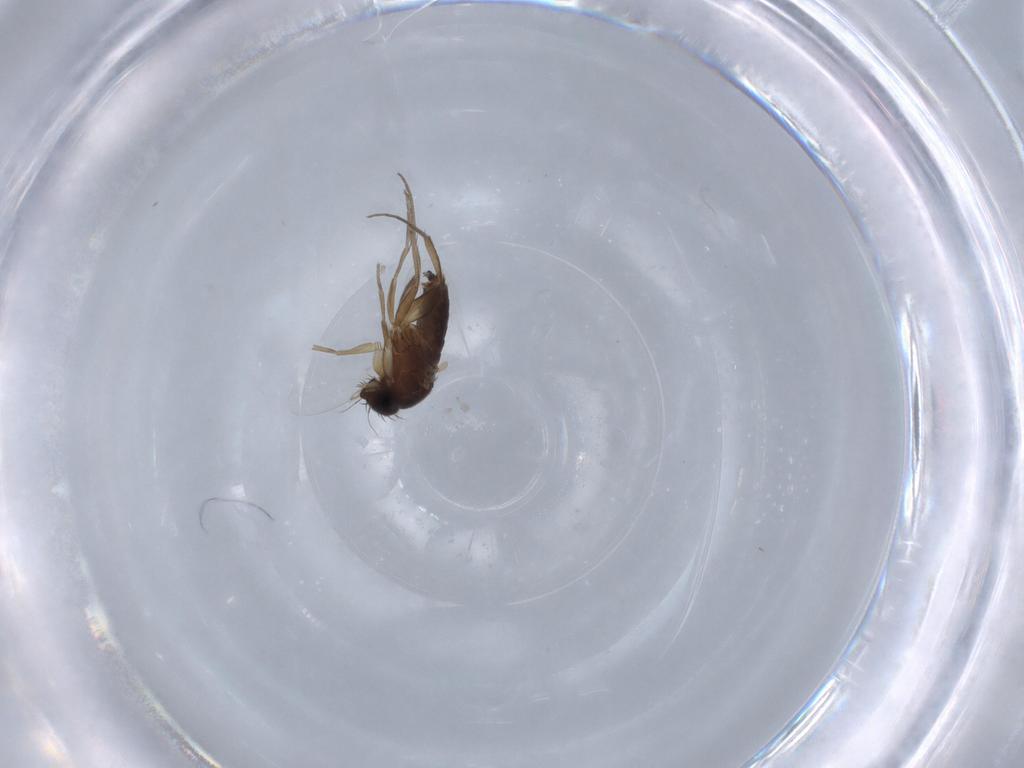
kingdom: Animalia
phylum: Arthropoda
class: Insecta
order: Diptera
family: Phoridae
